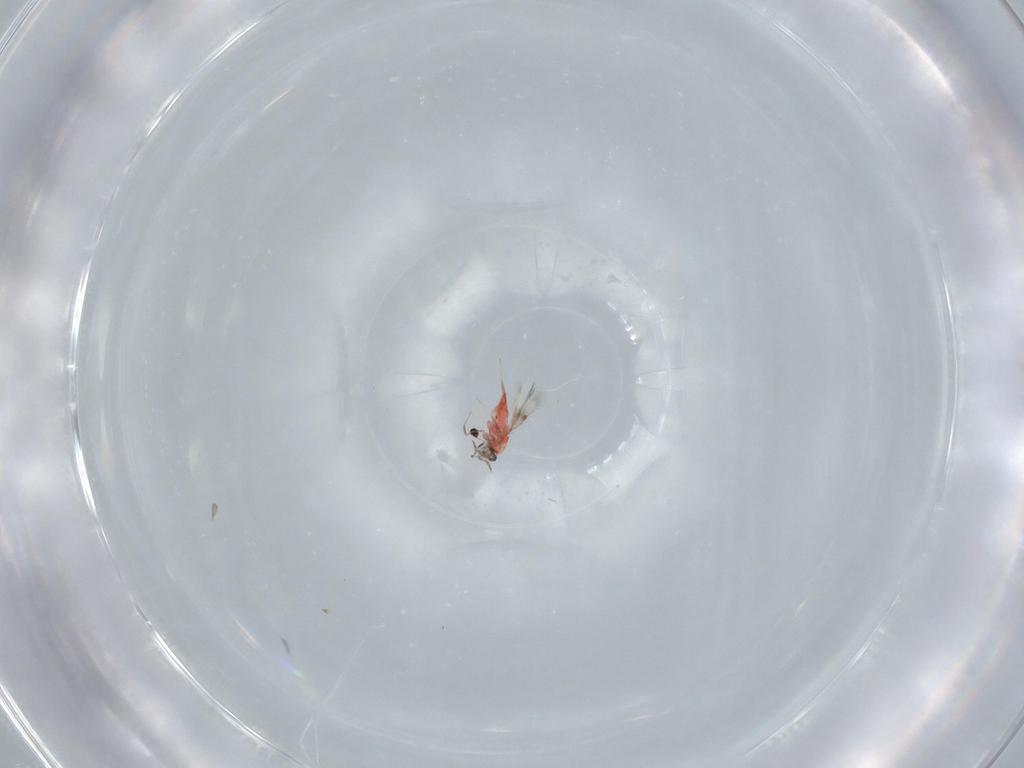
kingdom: Animalia
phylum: Arthropoda
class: Insecta
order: Hymenoptera
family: Trichogrammatidae
